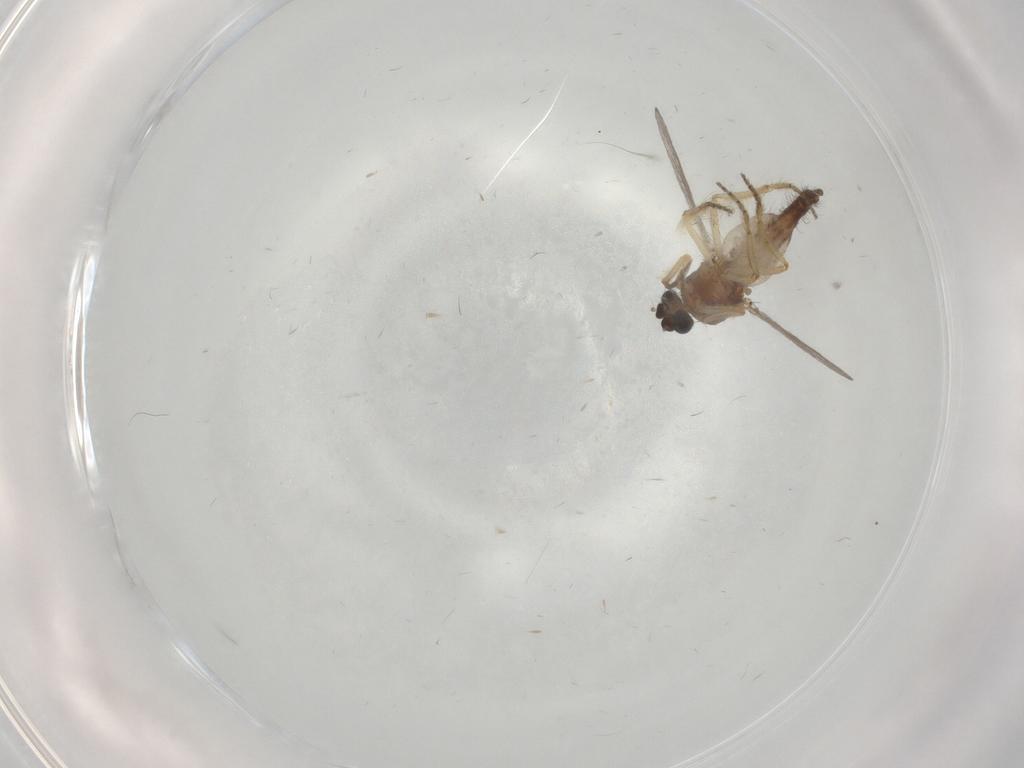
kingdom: Animalia
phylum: Arthropoda
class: Insecta
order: Diptera
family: Ceratopogonidae
